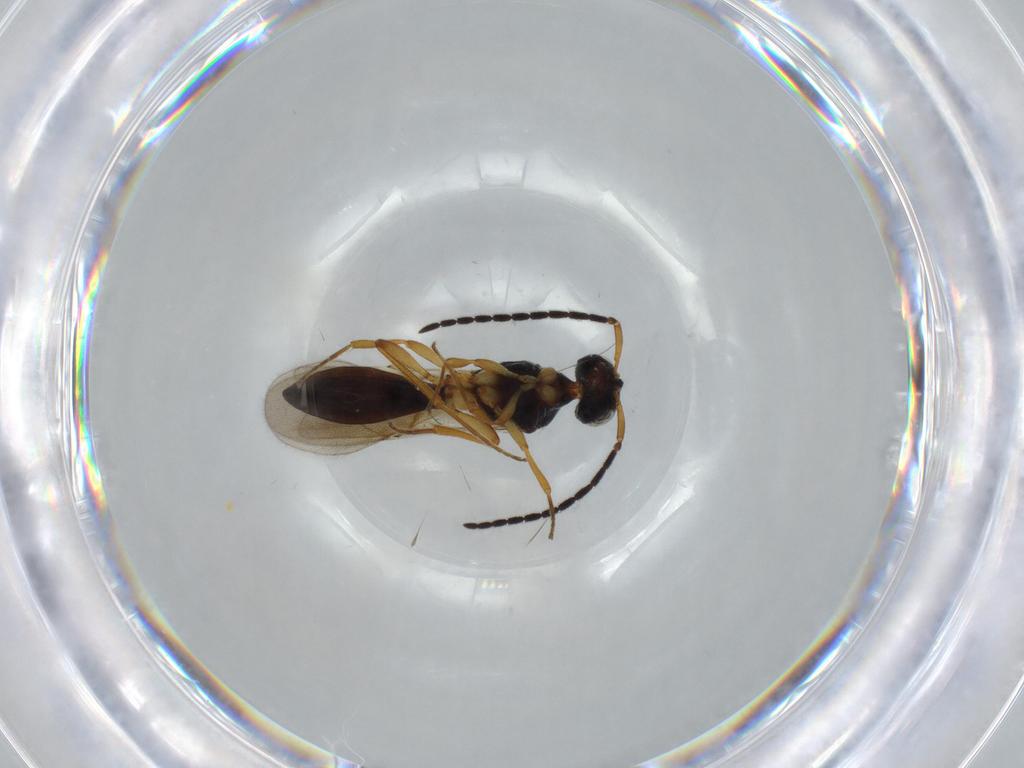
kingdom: Animalia
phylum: Arthropoda
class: Insecta
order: Hymenoptera
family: Scelionidae
